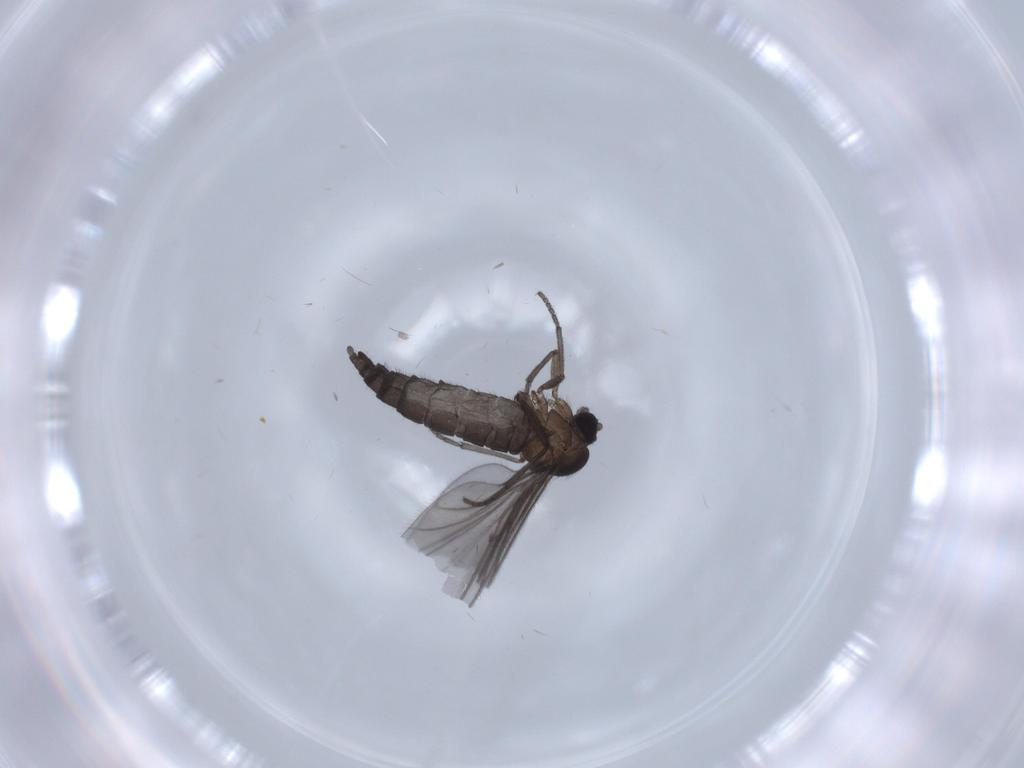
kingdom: Animalia
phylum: Arthropoda
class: Insecta
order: Diptera
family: Sciaridae
